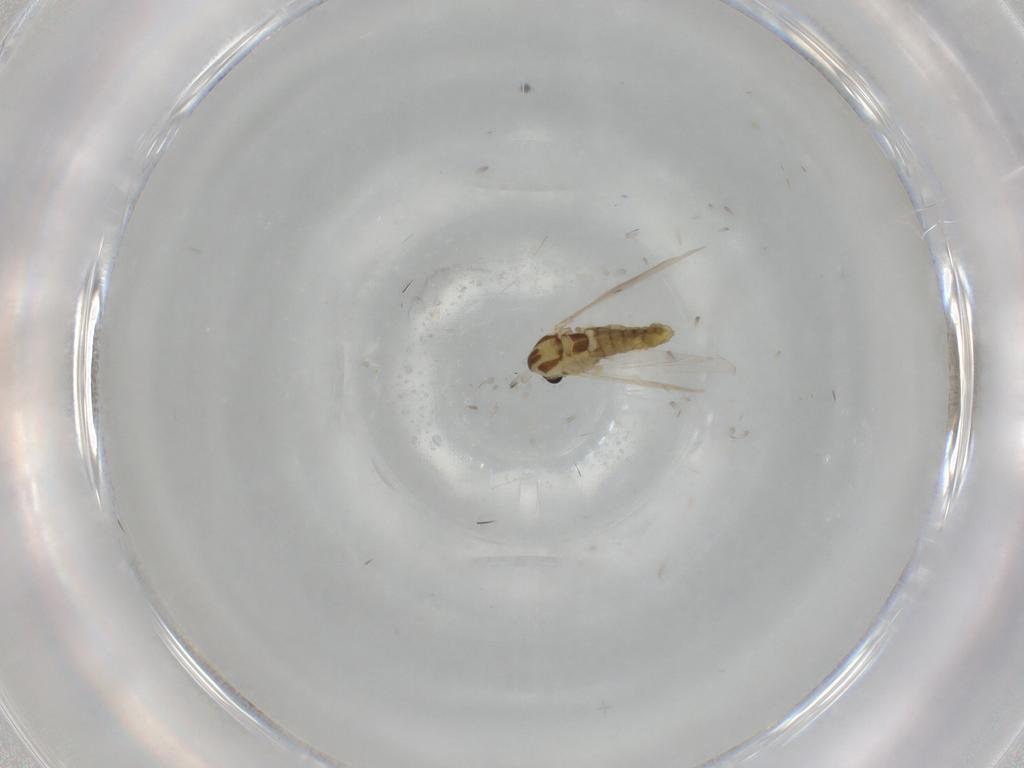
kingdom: Animalia
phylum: Arthropoda
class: Insecta
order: Diptera
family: Chironomidae
